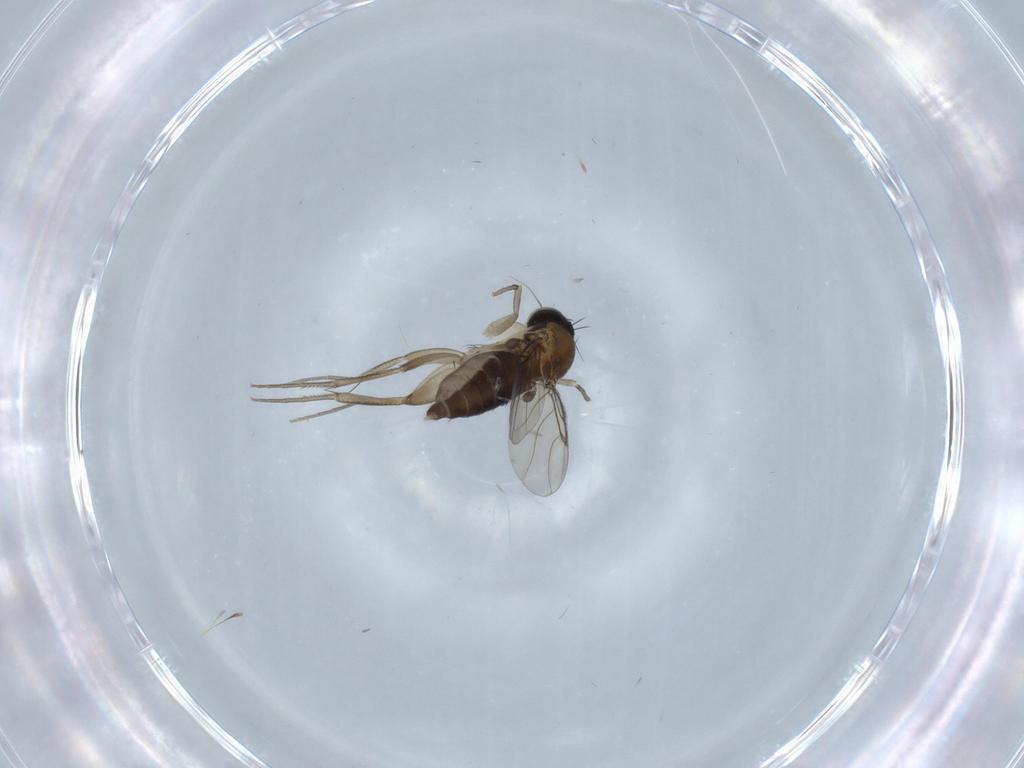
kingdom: Animalia
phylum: Arthropoda
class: Insecta
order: Diptera
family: Phoridae
